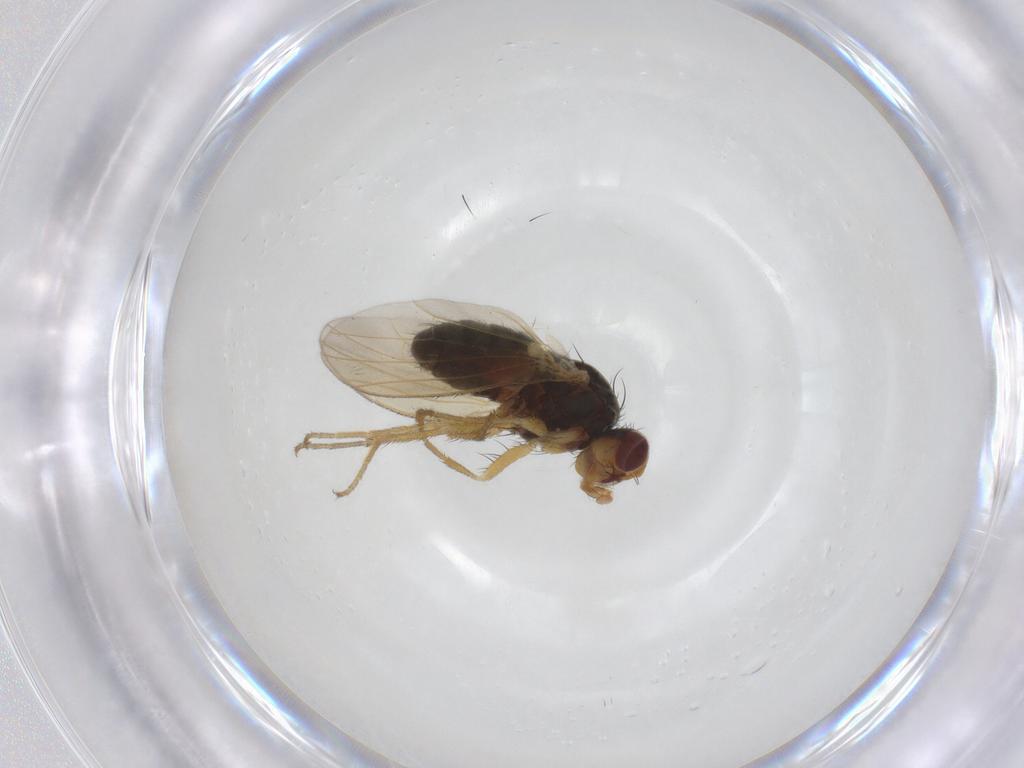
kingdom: Animalia
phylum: Arthropoda
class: Insecta
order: Diptera
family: Heleomyzidae
